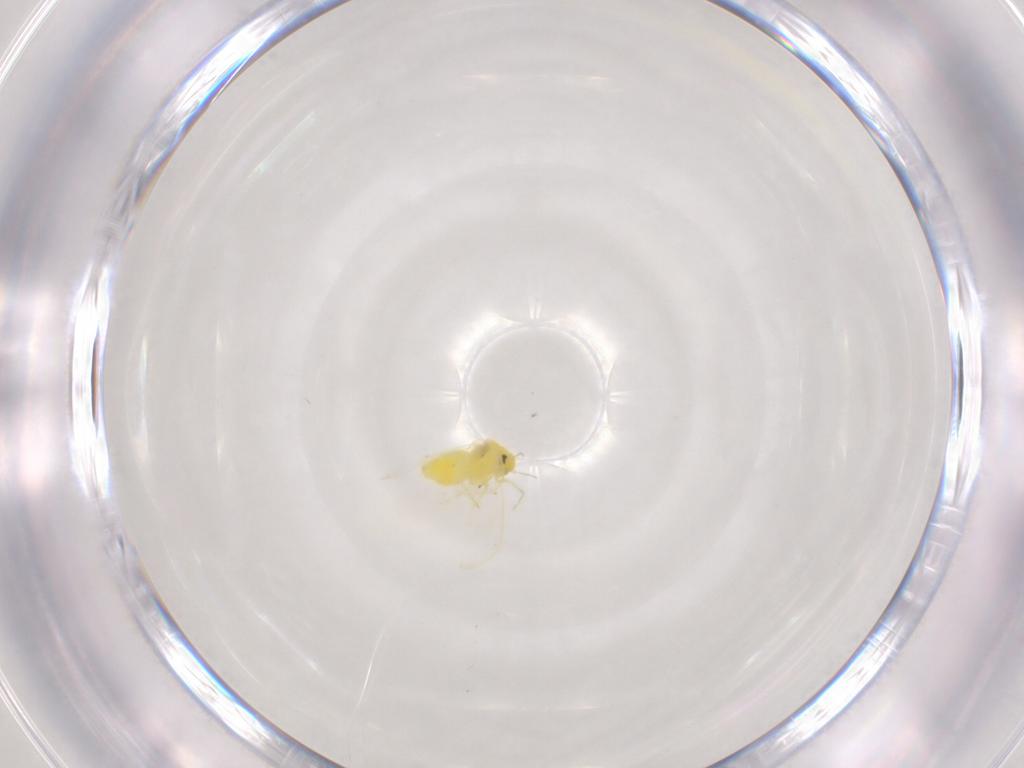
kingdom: Animalia
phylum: Arthropoda
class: Insecta
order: Hemiptera
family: Aleyrodidae
